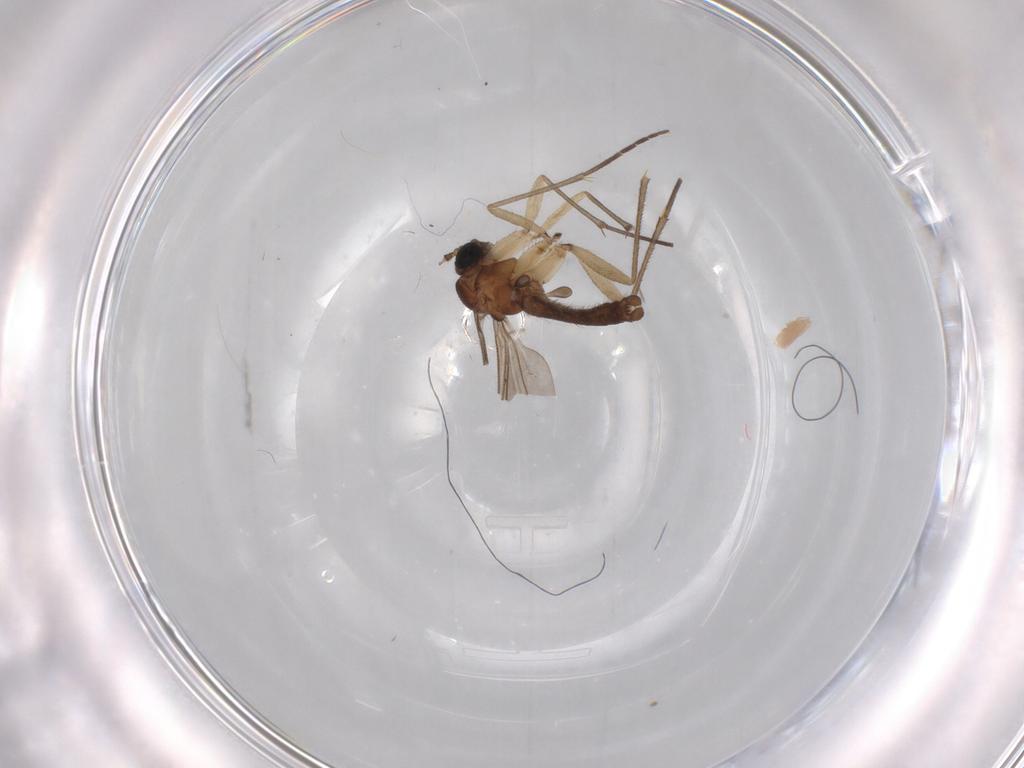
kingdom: Animalia
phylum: Arthropoda
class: Insecta
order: Diptera
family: Sciaridae
